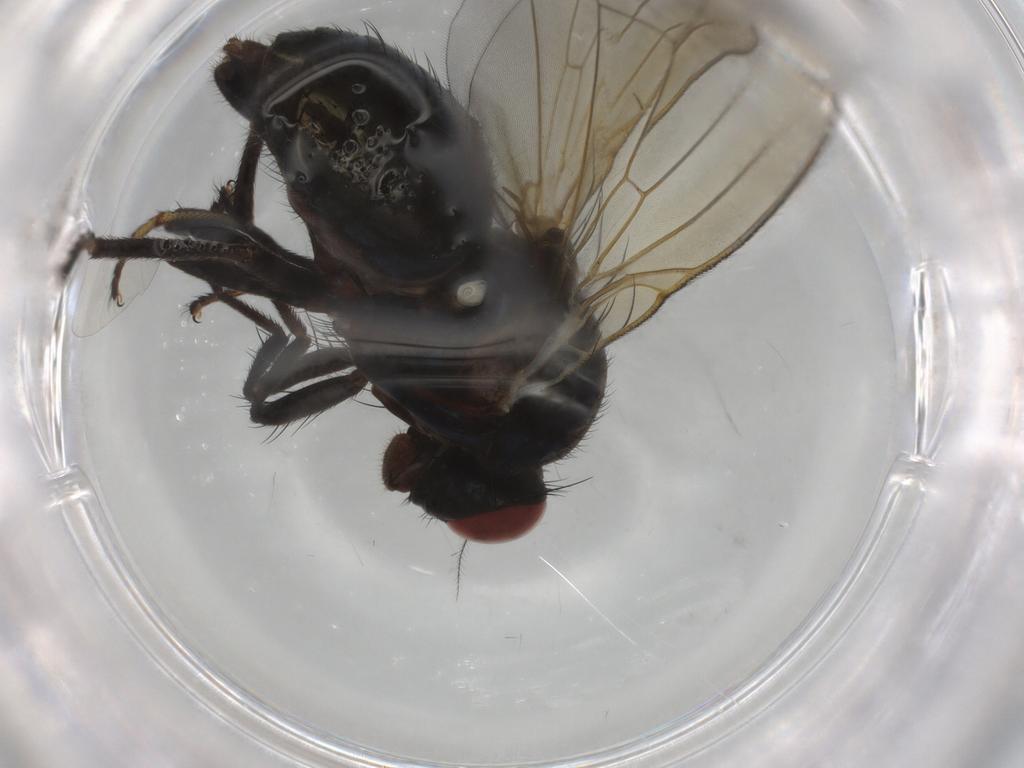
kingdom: Animalia
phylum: Arthropoda
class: Insecta
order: Diptera
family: Lauxaniidae
